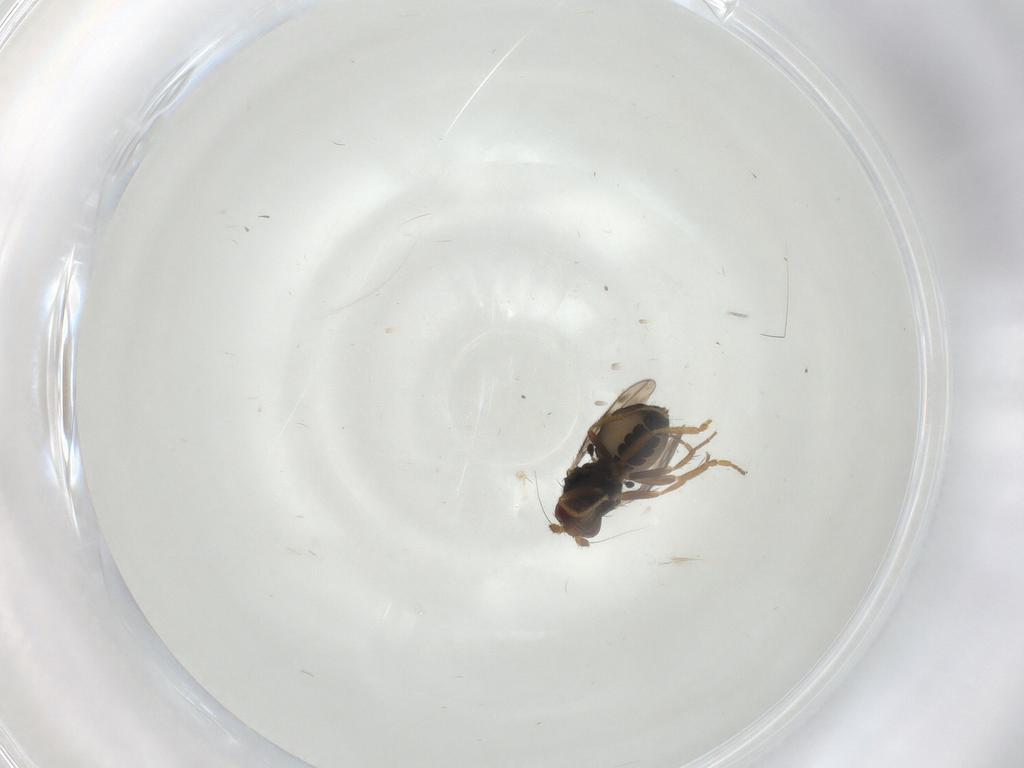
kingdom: Animalia
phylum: Arthropoda
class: Insecta
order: Diptera
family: Sphaeroceridae
